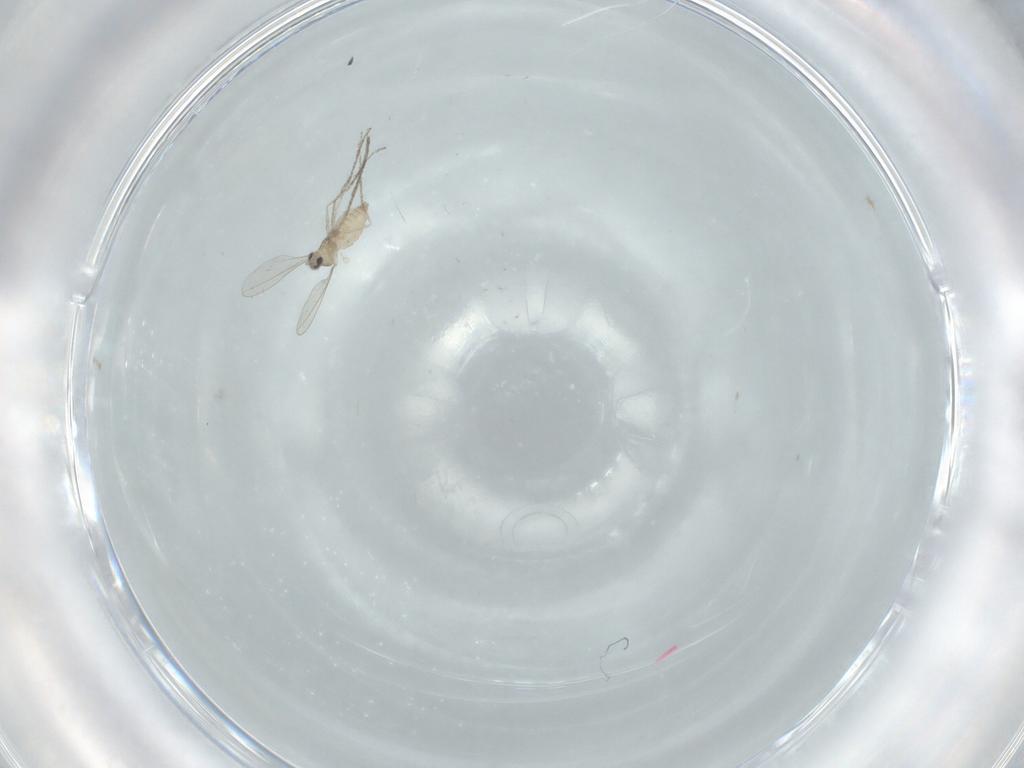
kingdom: Animalia
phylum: Arthropoda
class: Insecta
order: Diptera
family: Cecidomyiidae
